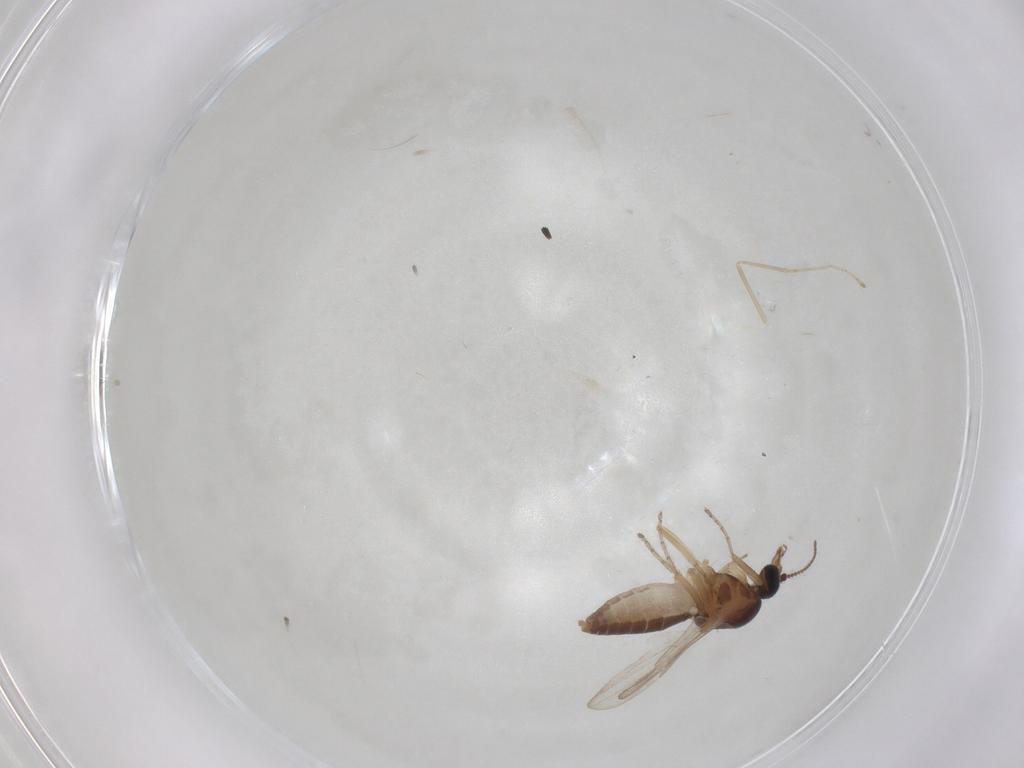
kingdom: Animalia
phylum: Arthropoda
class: Insecta
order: Diptera
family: Ceratopogonidae
